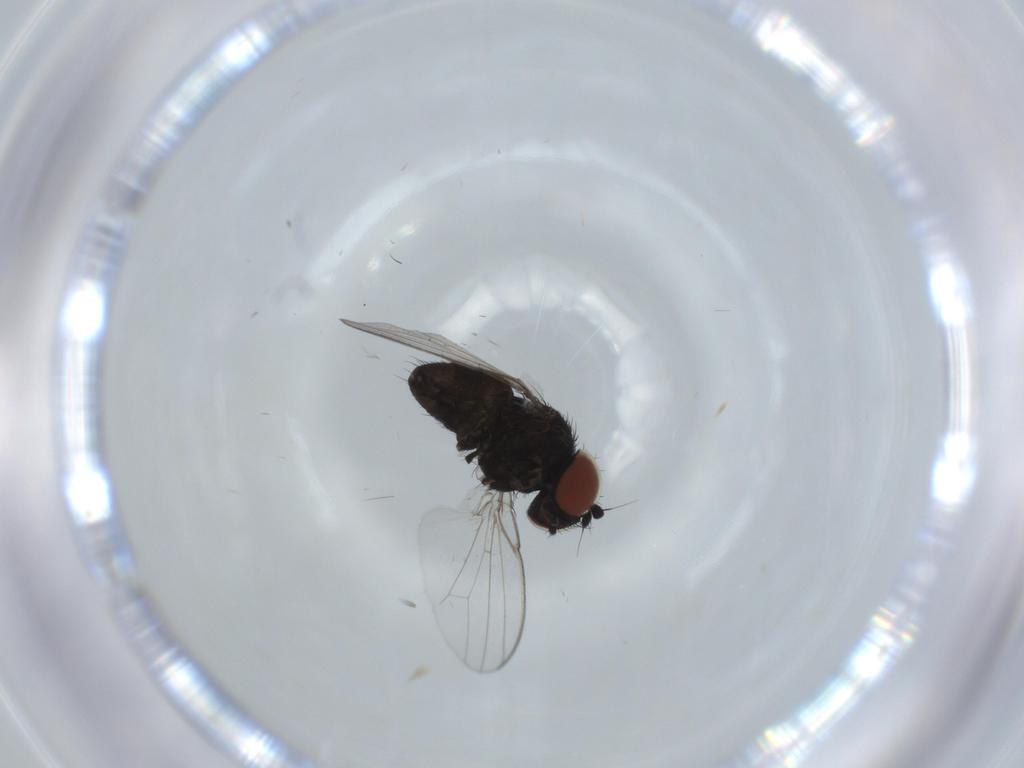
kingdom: Animalia
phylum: Arthropoda
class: Insecta
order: Diptera
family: Milichiidae
